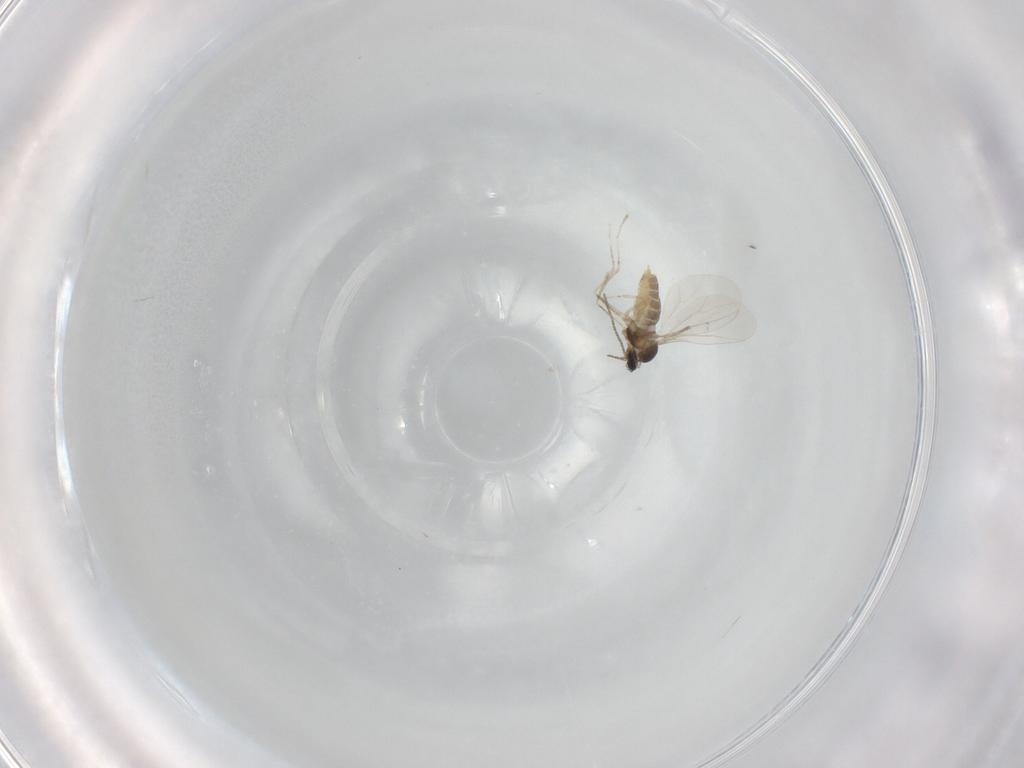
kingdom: Animalia
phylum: Arthropoda
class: Insecta
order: Diptera
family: Cecidomyiidae
